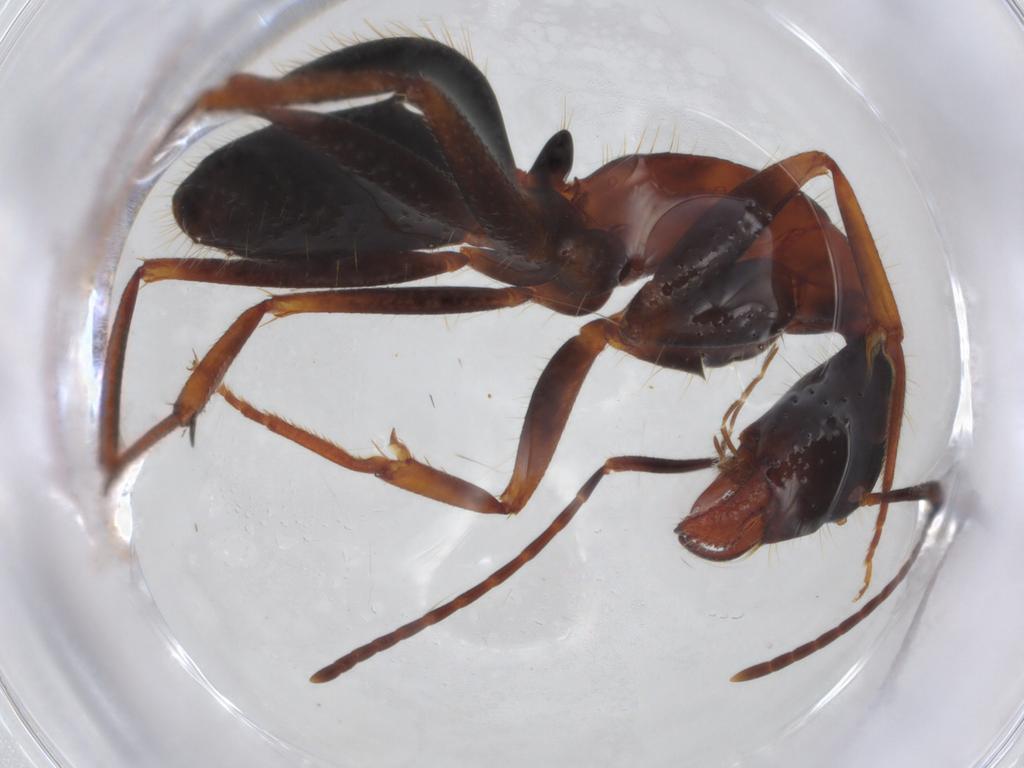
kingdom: Animalia
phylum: Arthropoda
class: Insecta
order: Hymenoptera
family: Formicidae
